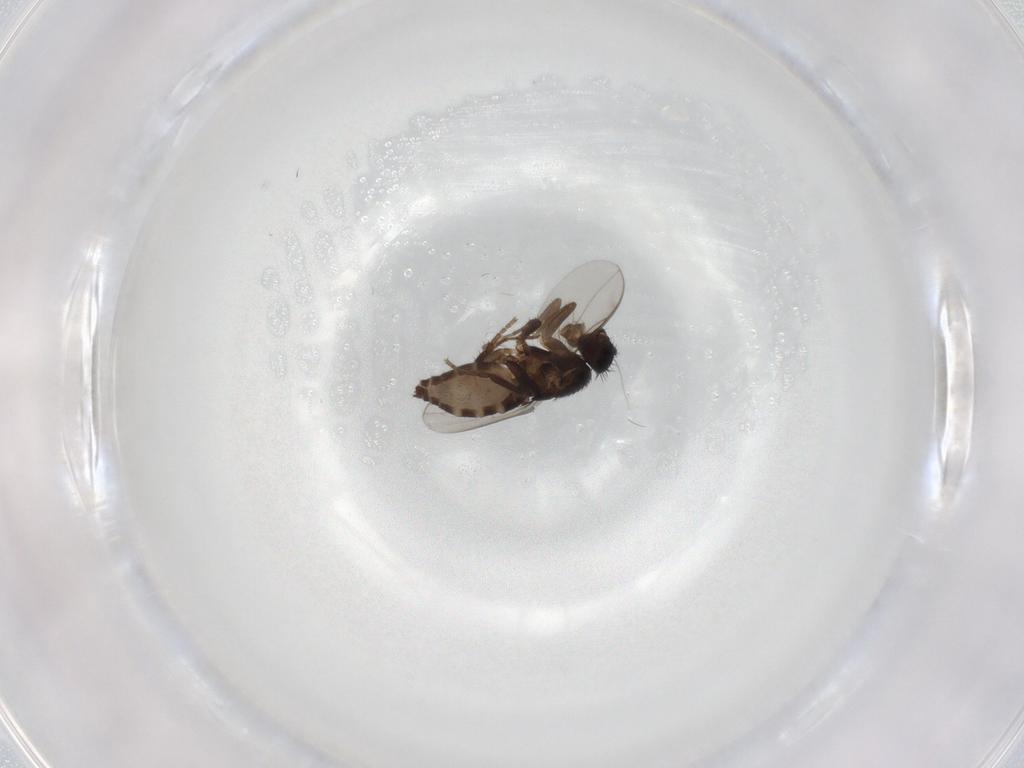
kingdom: Animalia
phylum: Arthropoda
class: Insecta
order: Diptera
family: Sphaeroceridae
